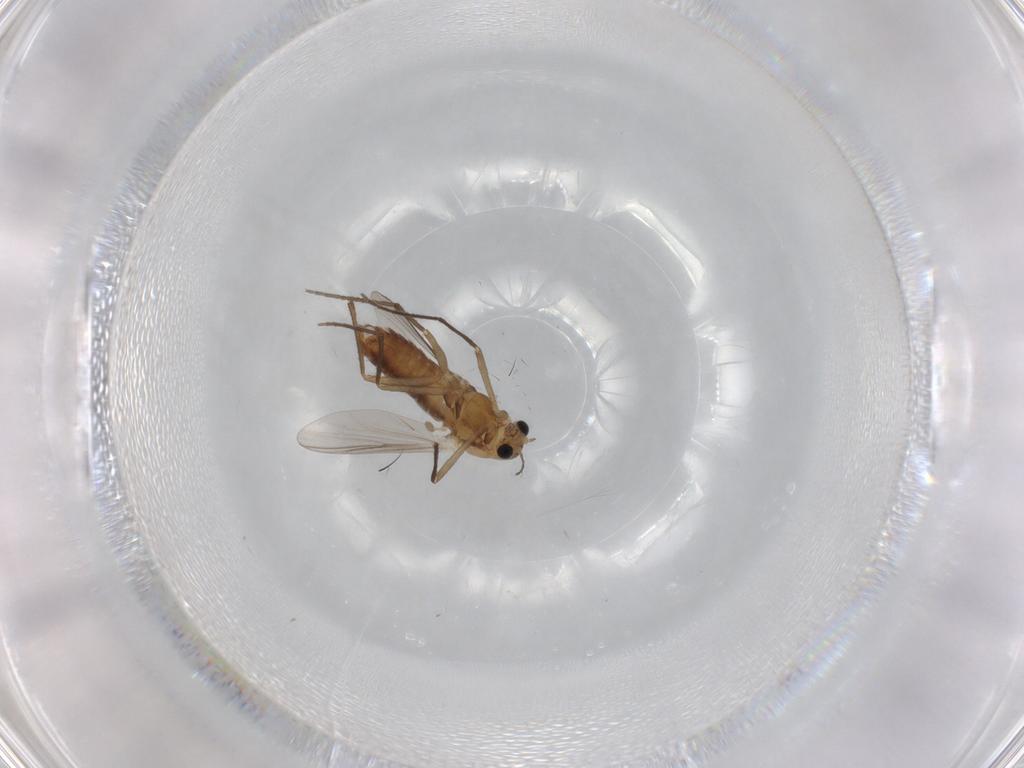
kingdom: Animalia
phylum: Arthropoda
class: Insecta
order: Diptera
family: Chironomidae
